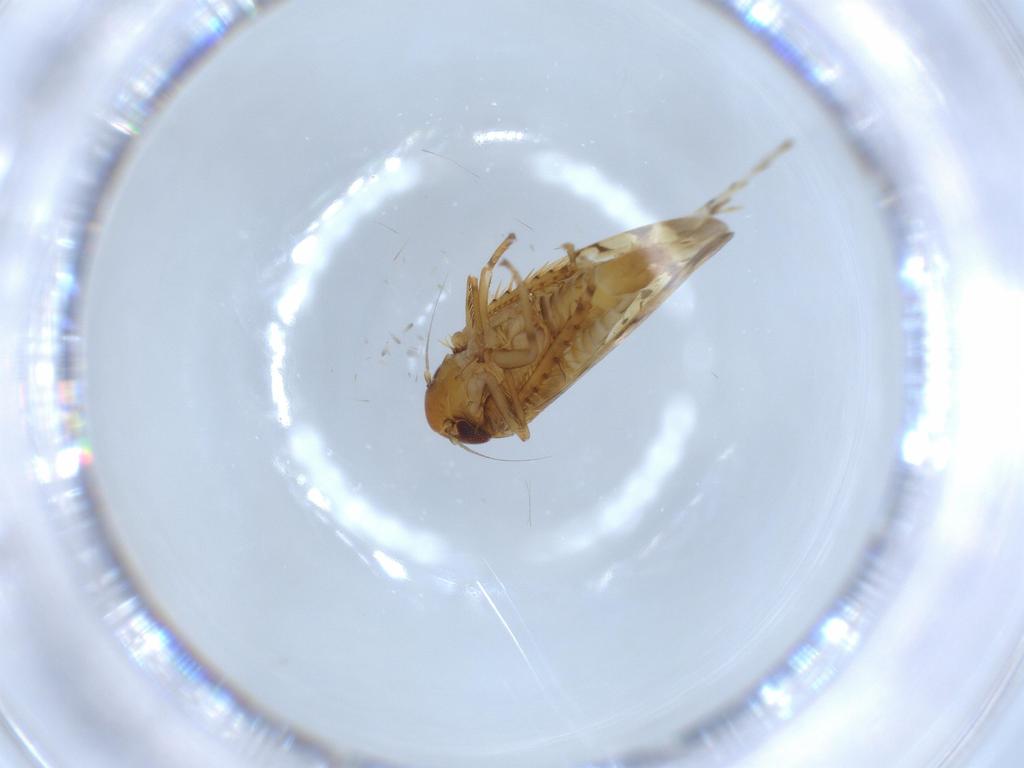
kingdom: Animalia
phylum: Arthropoda
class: Insecta
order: Hemiptera
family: Cicadellidae
